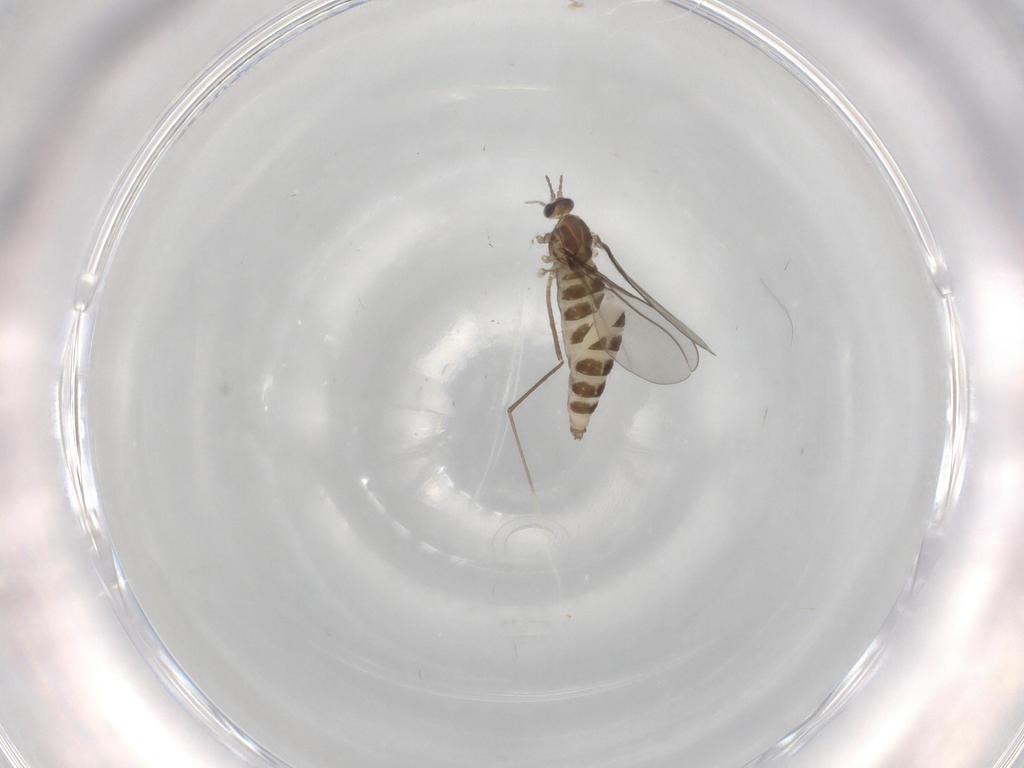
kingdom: Animalia
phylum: Arthropoda
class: Insecta
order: Diptera
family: Cecidomyiidae
